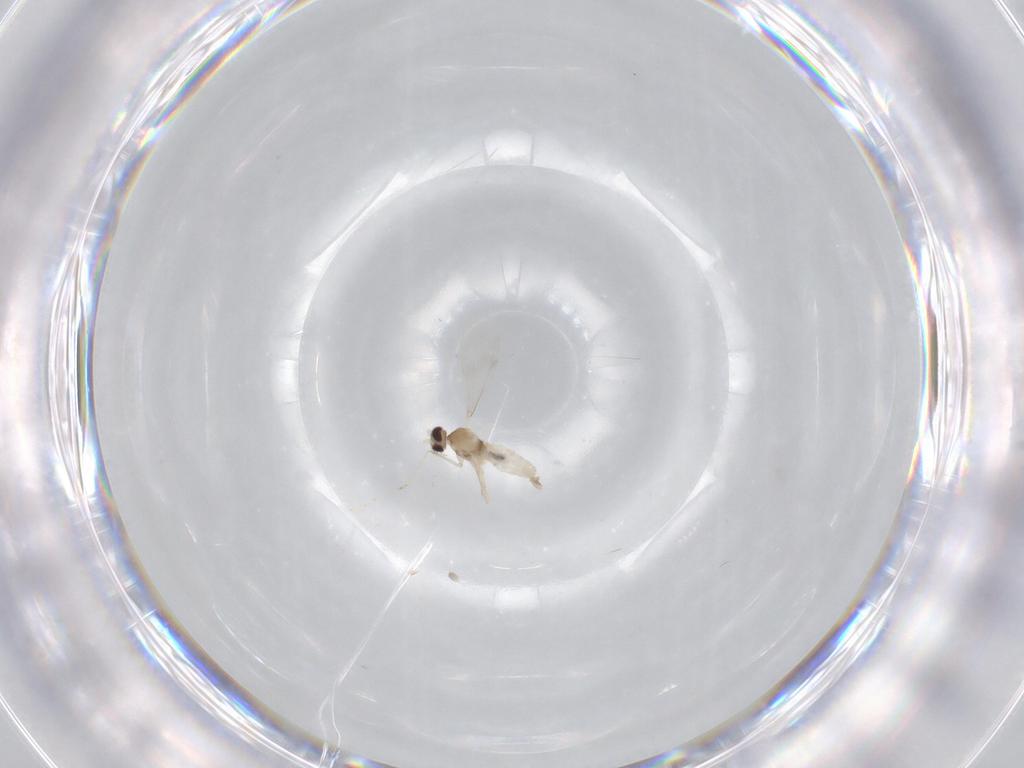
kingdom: Animalia
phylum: Arthropoda
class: Insecta
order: Diptera
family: Cecidomyiidae
